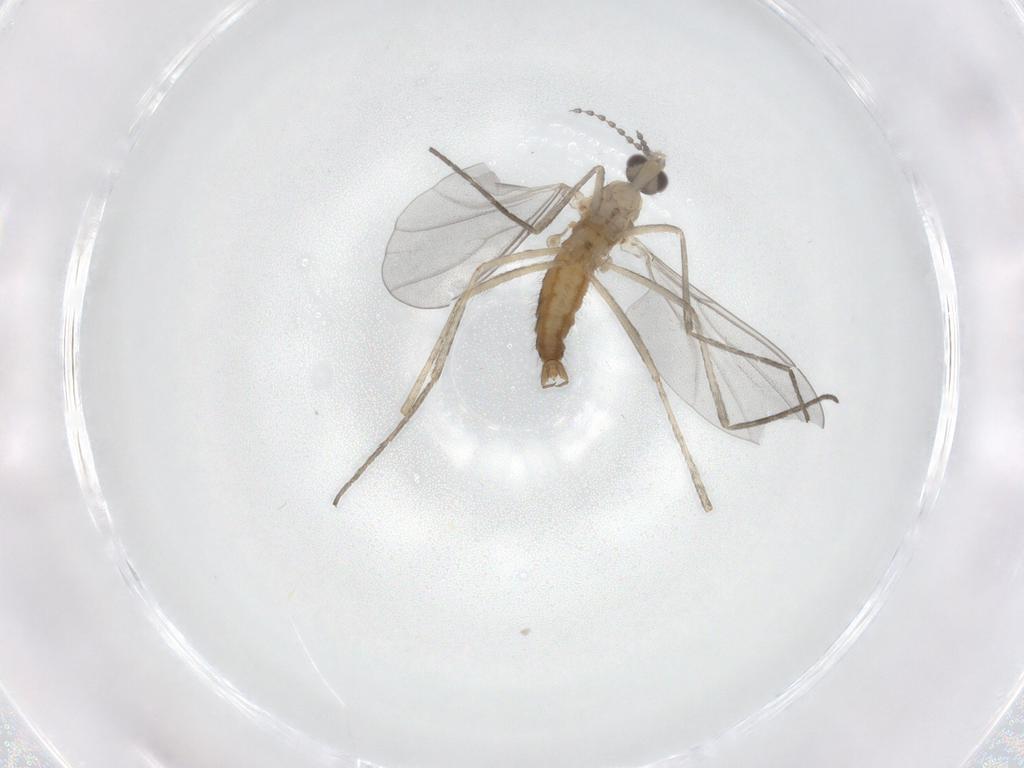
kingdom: Animalia
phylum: Arthropoda
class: Insecta
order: Diptera
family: Cecidomyiidae
